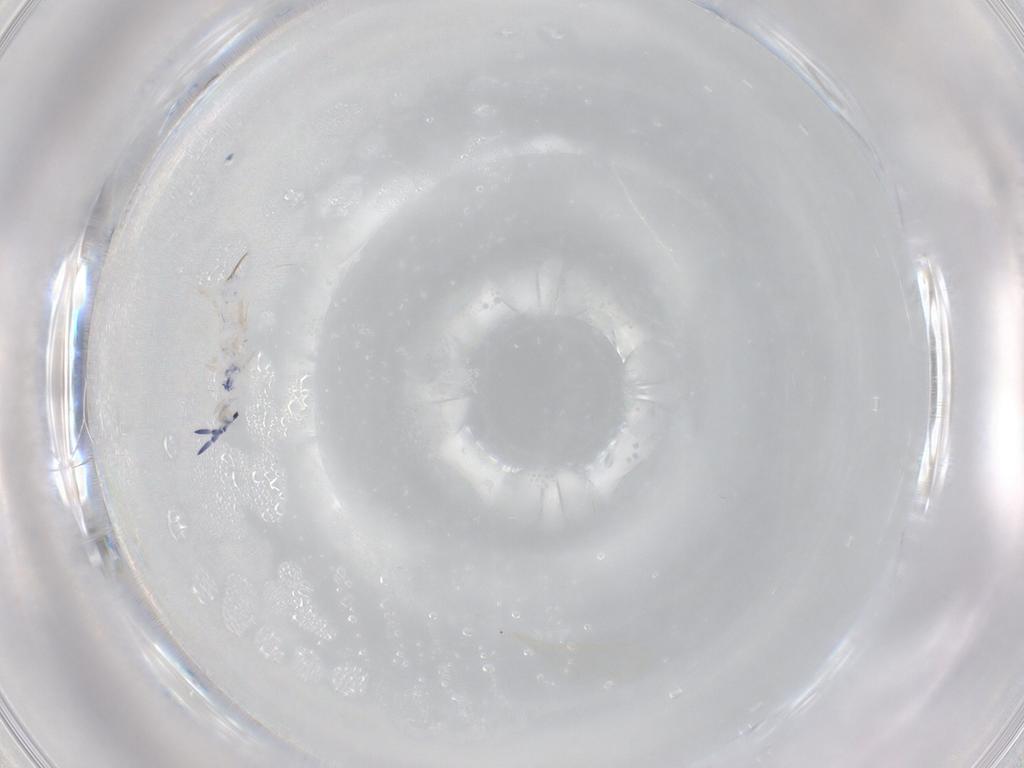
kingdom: Animalia
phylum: Arthropoda
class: Collembola
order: Entomobryomorpha
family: Entomobryidae
